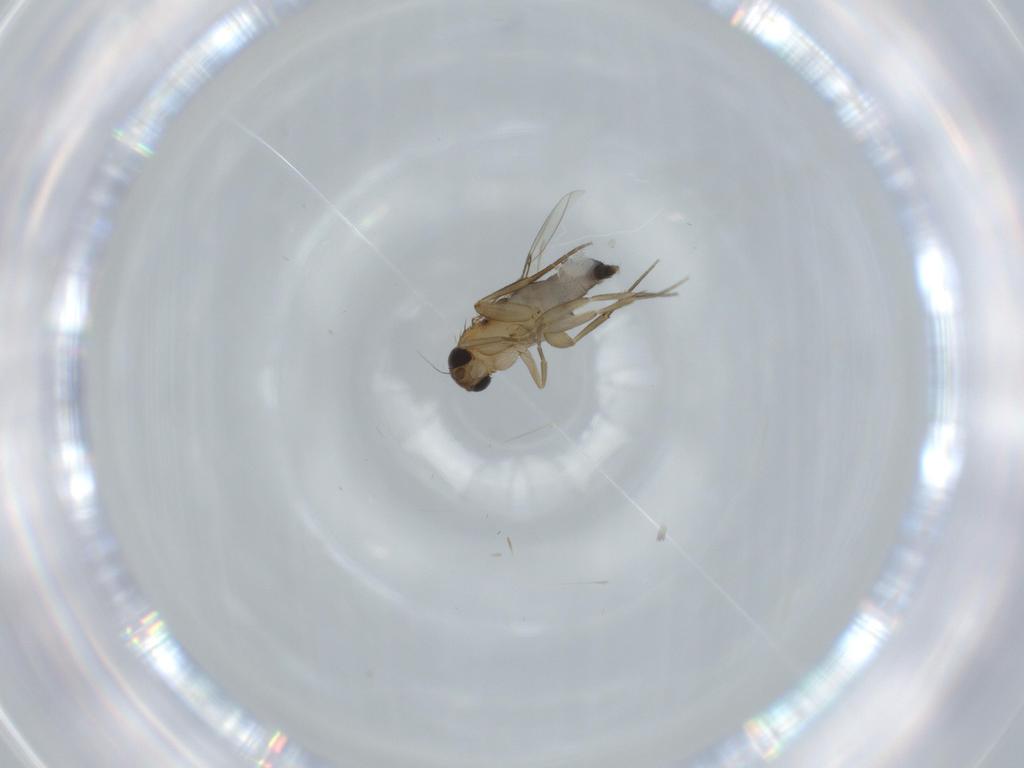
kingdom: Animalia
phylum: Arthropoda
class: Insecta
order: Diptera
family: Phoridae
